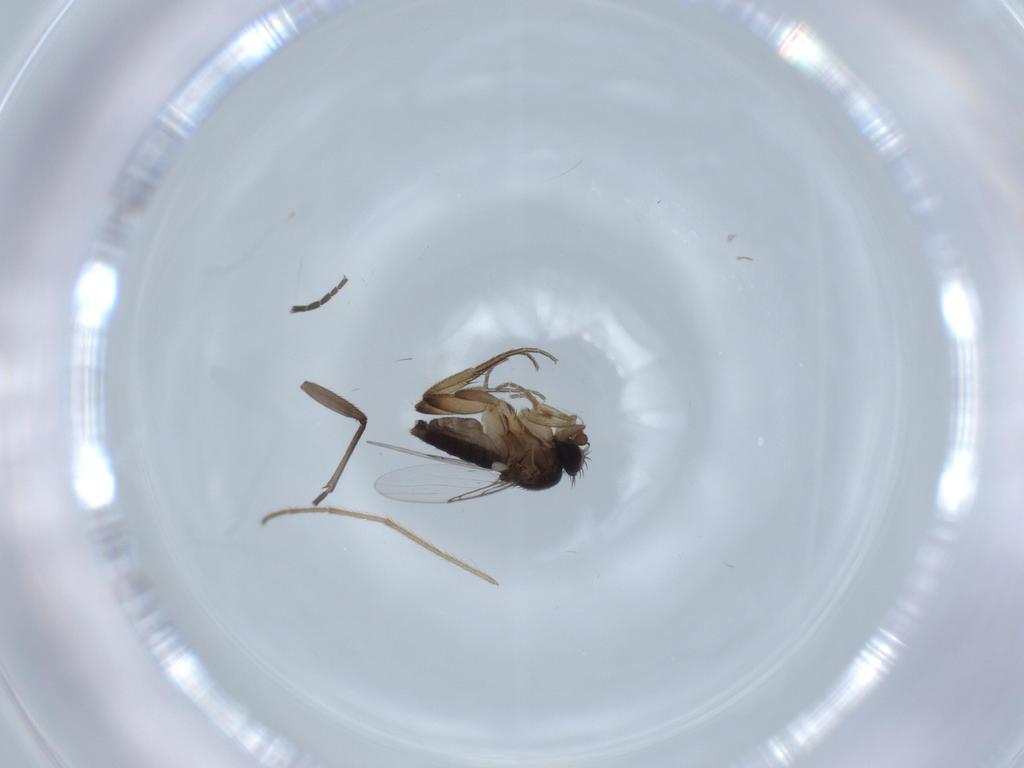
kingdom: Animalia
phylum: Arthropoda
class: Insecta
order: Diptera
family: Phoridae
